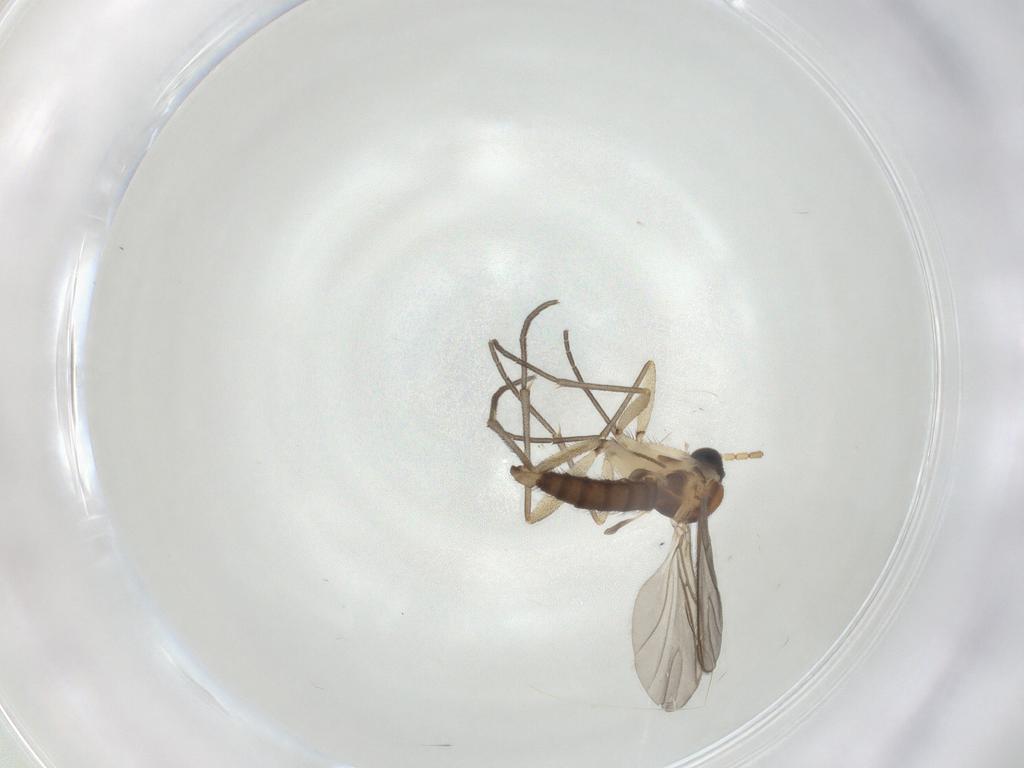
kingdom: Animalia
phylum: Arthropoda
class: Insecta
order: Diptera
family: Sciaridae
